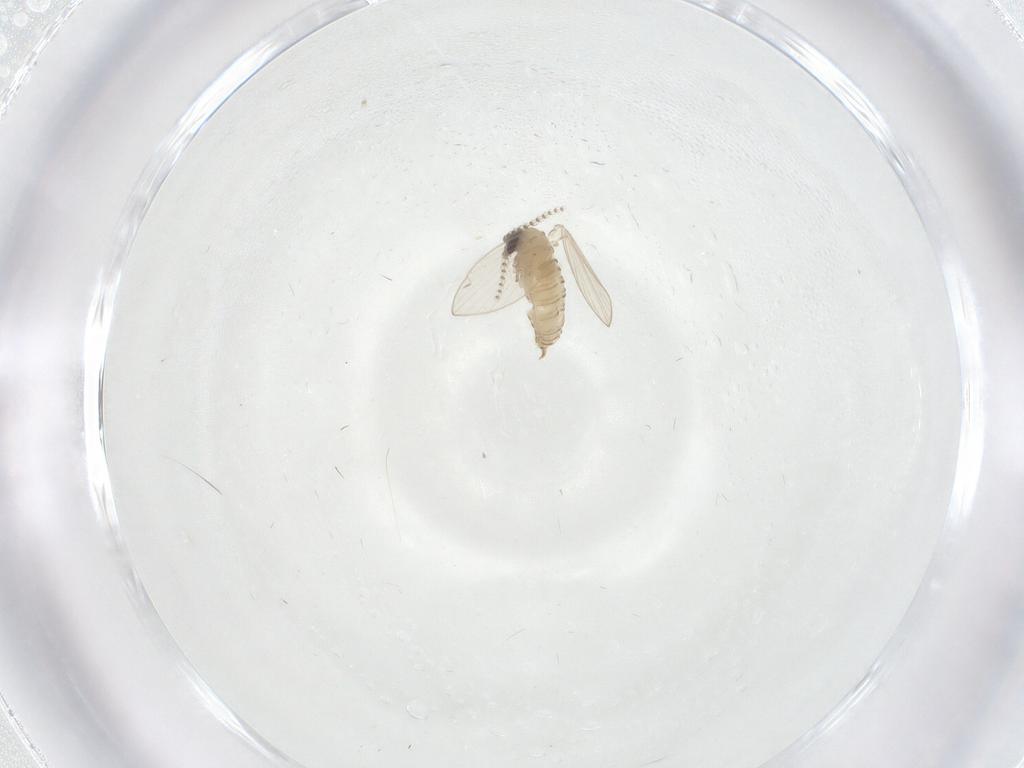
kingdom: Animalia
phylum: Arthropoda
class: Insecta
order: Diptera
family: Psychodidae
